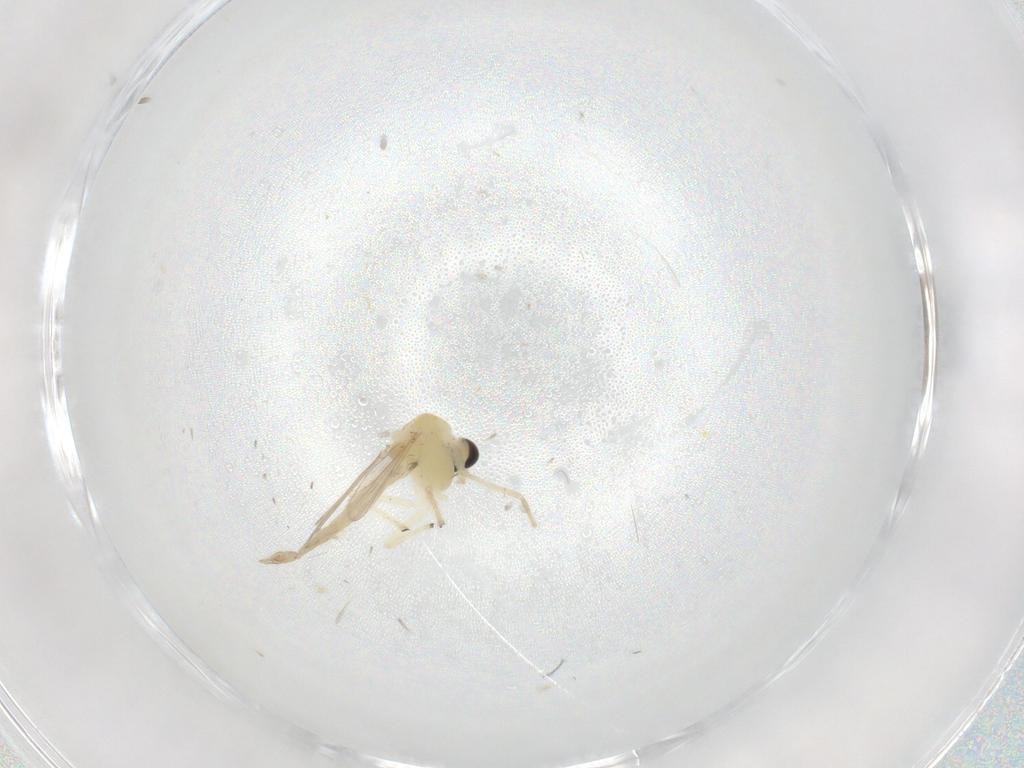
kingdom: Animalia
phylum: Arthropoda
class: Insecta
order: Diptera
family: Chironomidae
